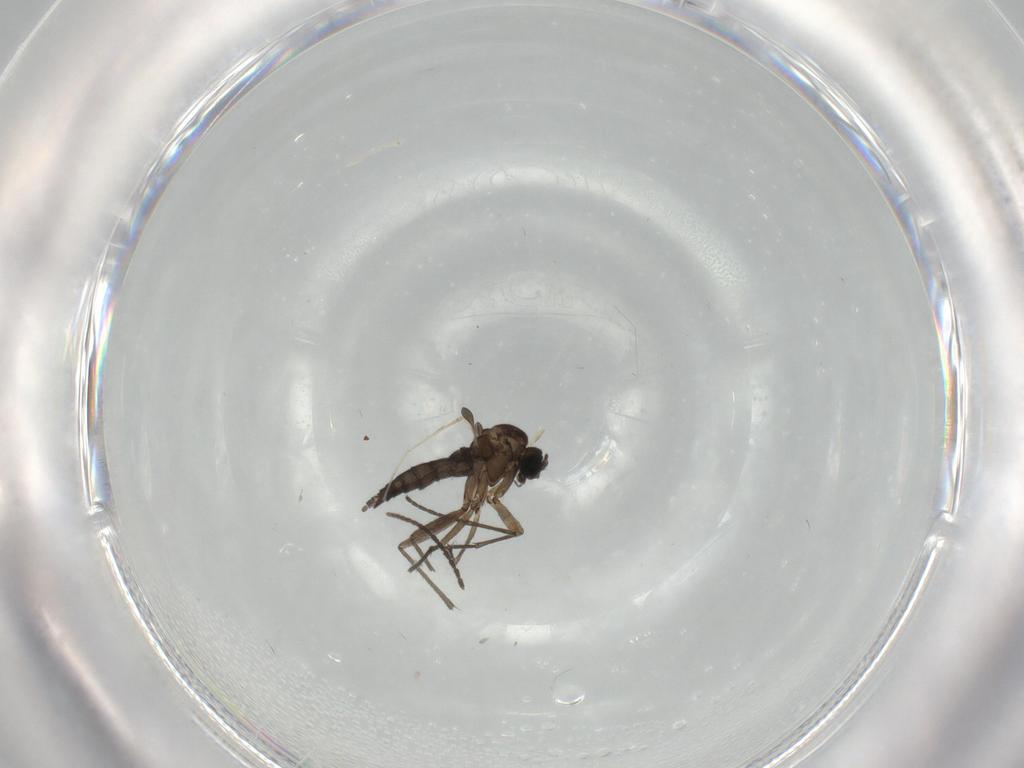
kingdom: Animalia
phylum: Arthropoda
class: Insecta
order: Diptera
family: Sciaridae
